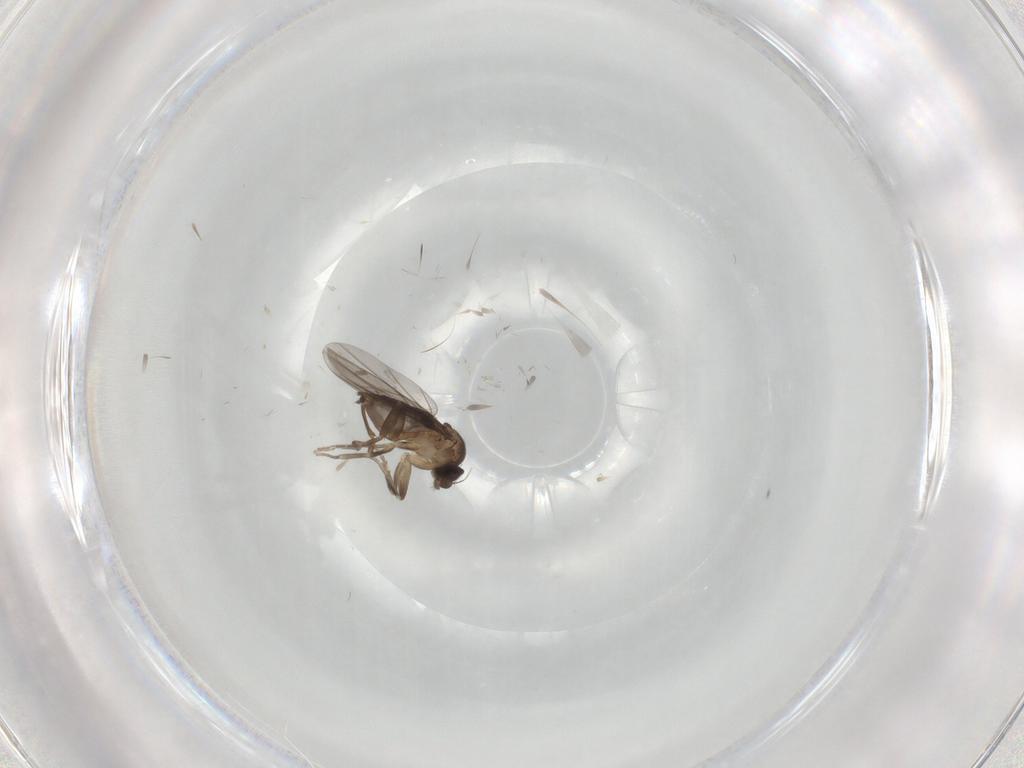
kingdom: Animalia
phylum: Arthropoda
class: Insecta
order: Diptera
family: Phoridae
